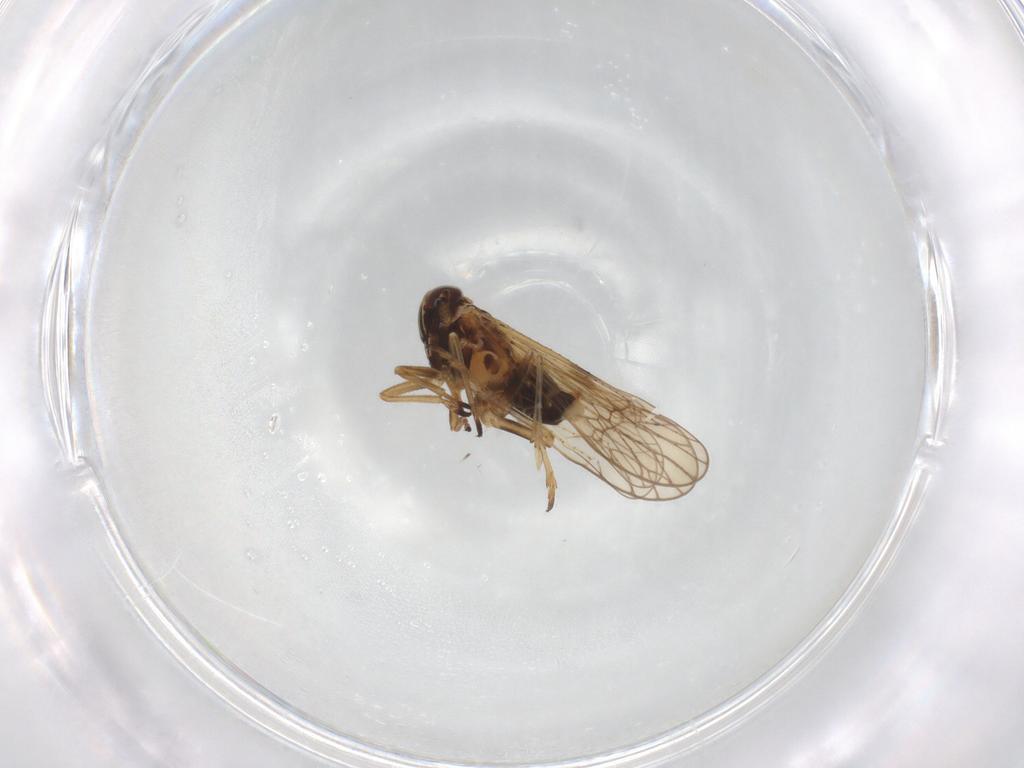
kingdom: Animalia
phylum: Arthropoda
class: Insecta
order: Hemiptera
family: Delphacidae
